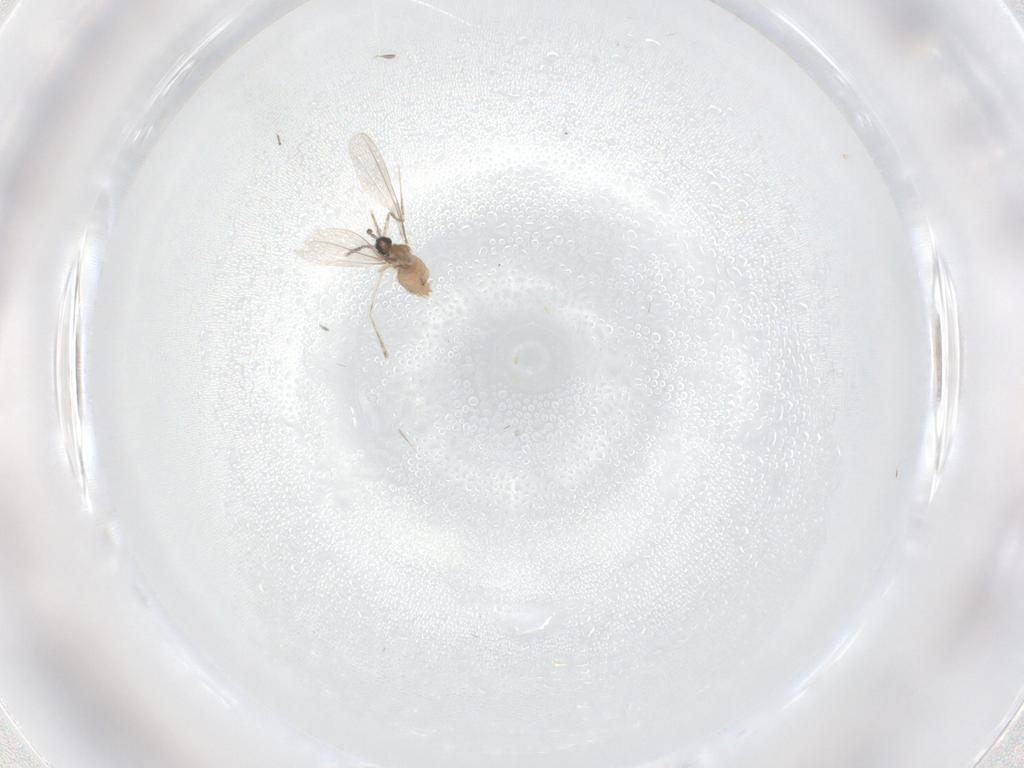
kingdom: Animalia
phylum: Arthropoda
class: Insecta
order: Diptera
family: Cecidomyiidae
